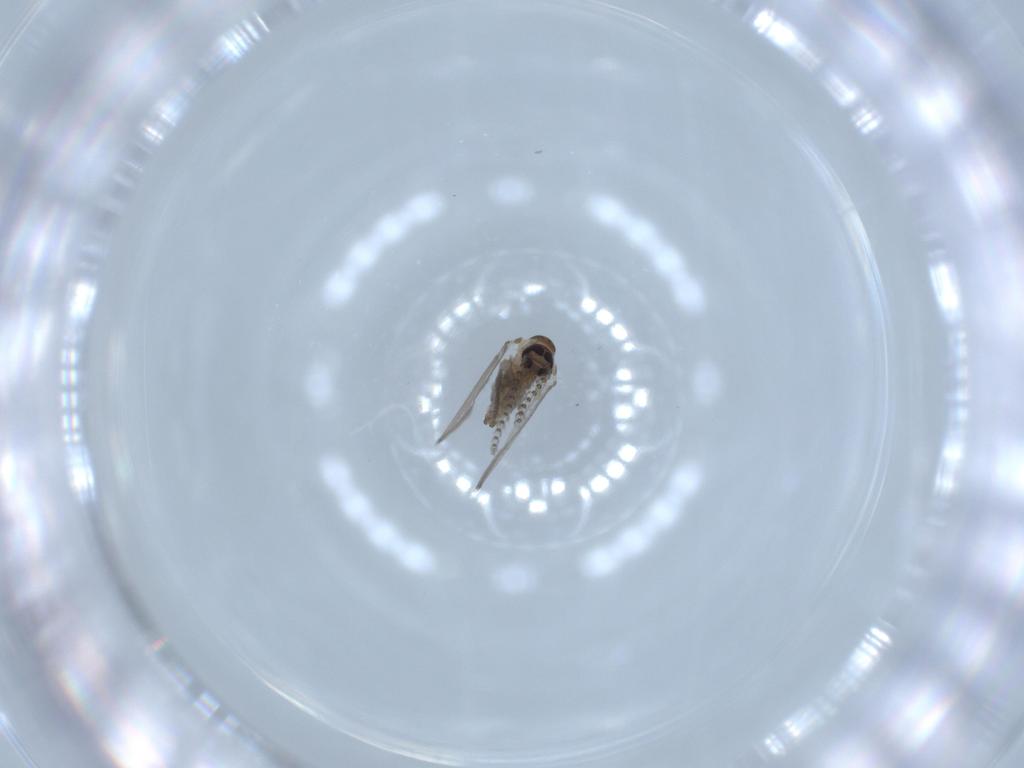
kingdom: Animalia
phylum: Arthropoda
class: Insecta
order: Diptera
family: Psychodidae
